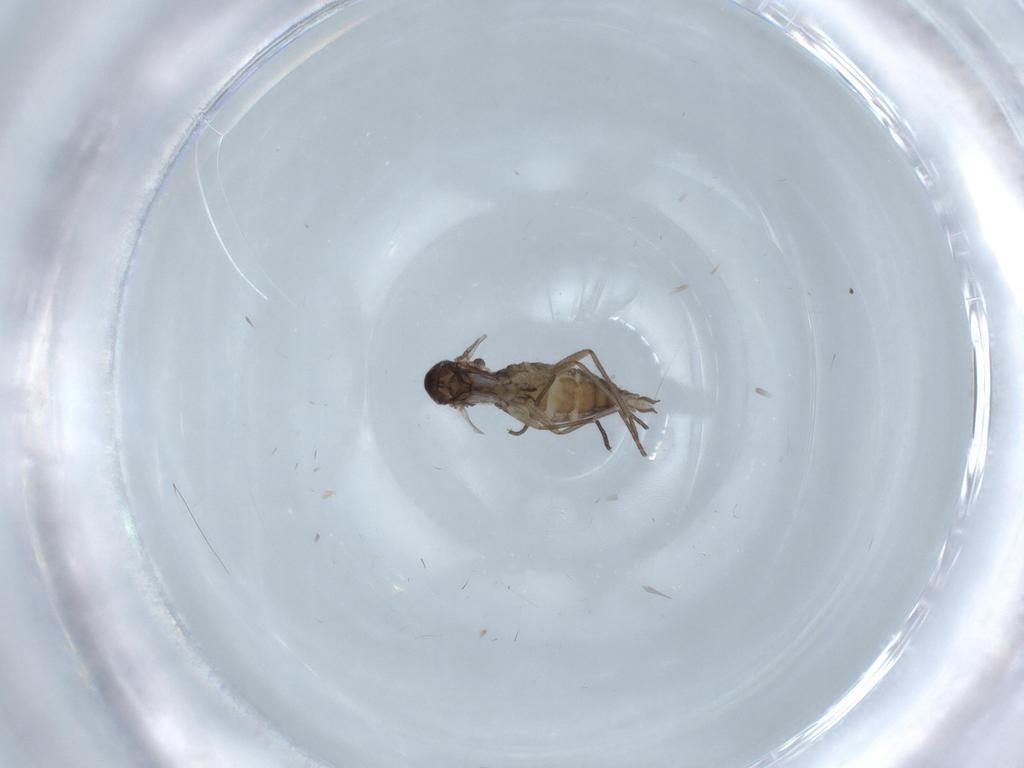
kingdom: Animalia
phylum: Arthropoda
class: Insecta
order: Diptera
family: Sciaridae
